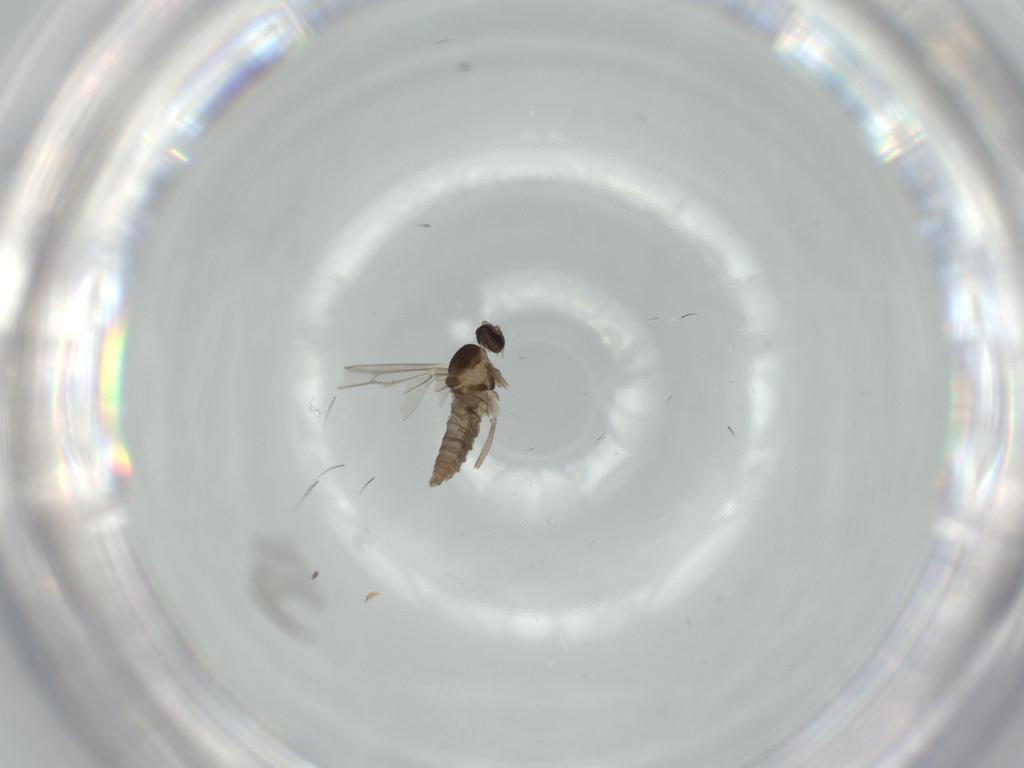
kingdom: Animalia
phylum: Arthropoda
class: Insecta
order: Diptera
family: Cecidomyiidae
